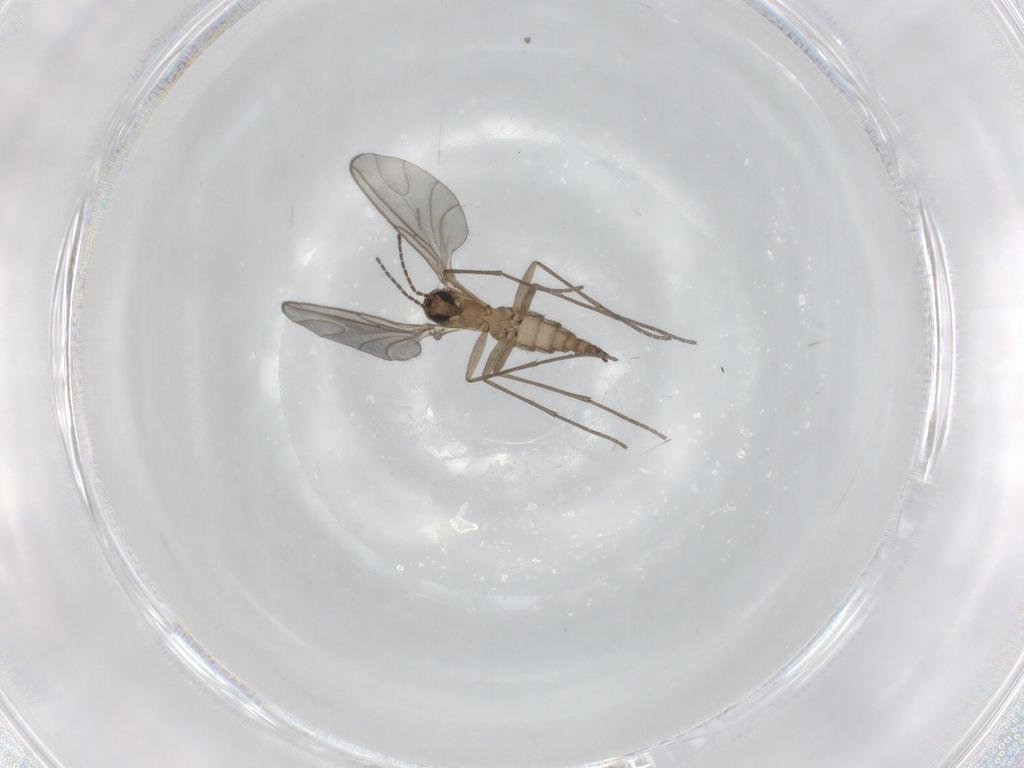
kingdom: Animalia
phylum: Arthropoda
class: Insecta
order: Diptera
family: Sciaridae
